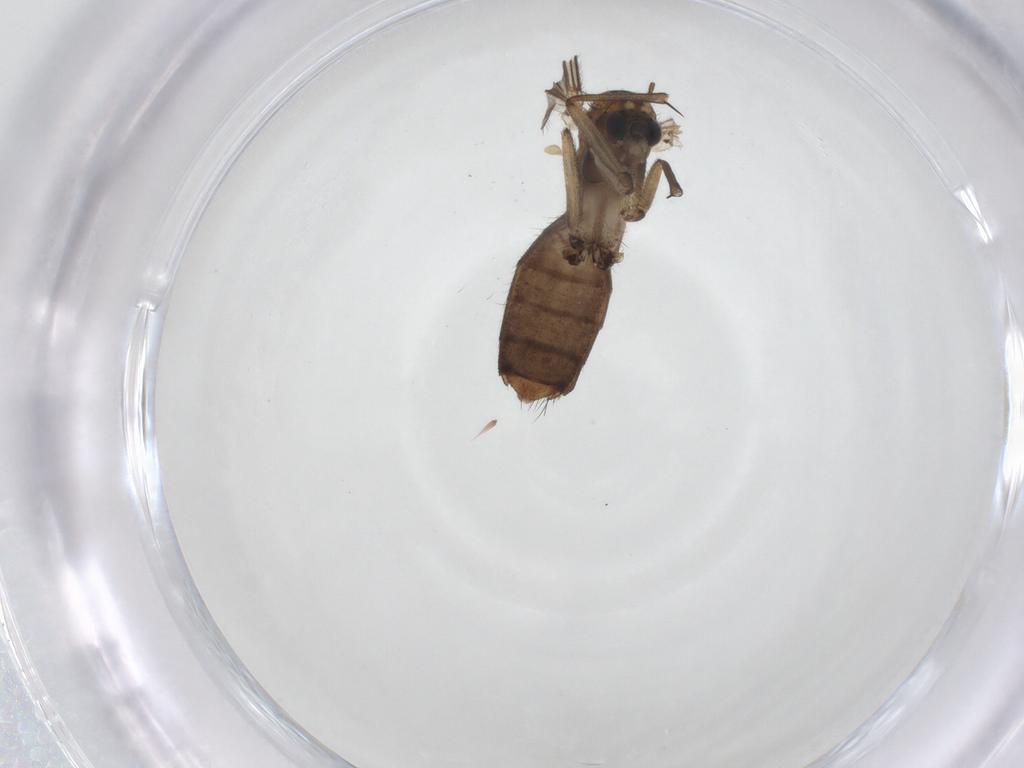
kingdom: Animalia
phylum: Arthropoda
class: Insecta
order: Diptera
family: Mycetophilidae
